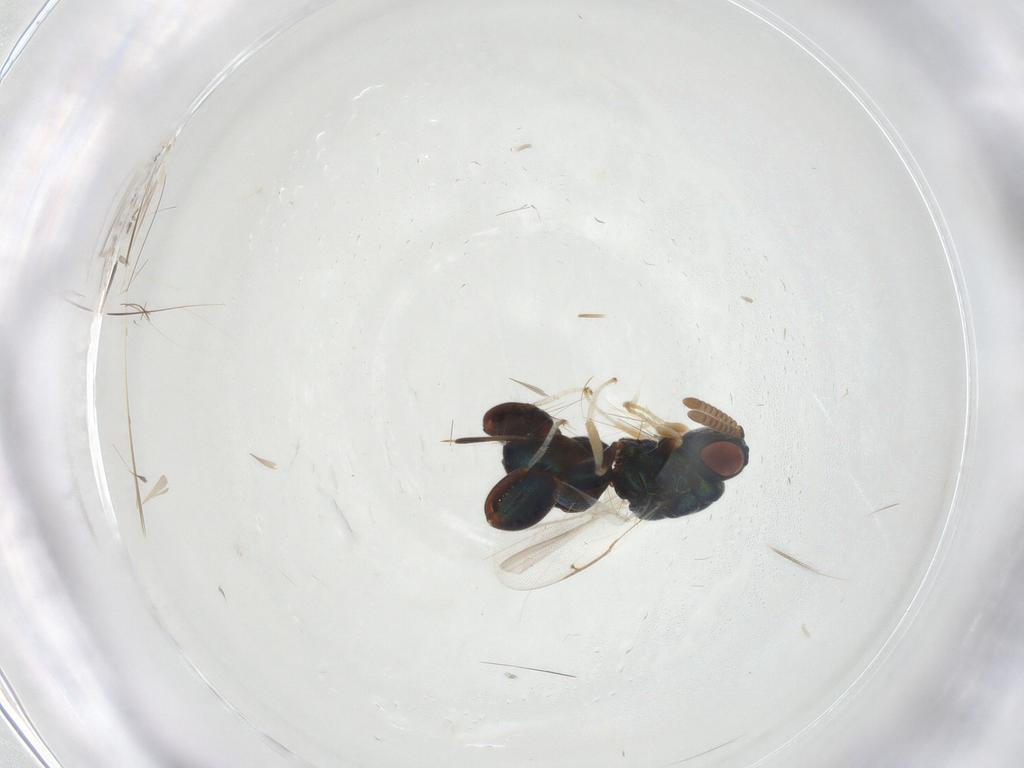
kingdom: Animalia
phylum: Arthropoda
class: Insecta
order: Hymenoptera
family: Torymidae
